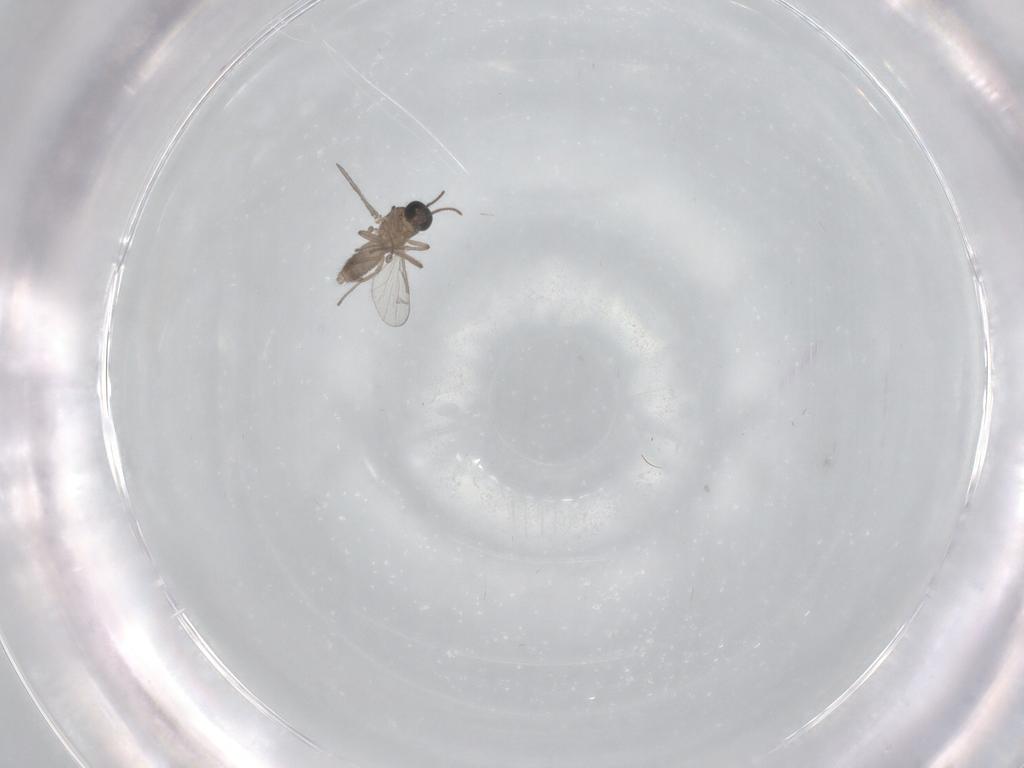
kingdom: Animalia
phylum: Arthropoda
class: Insecta
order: Diptera
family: Ceratopogonidae
